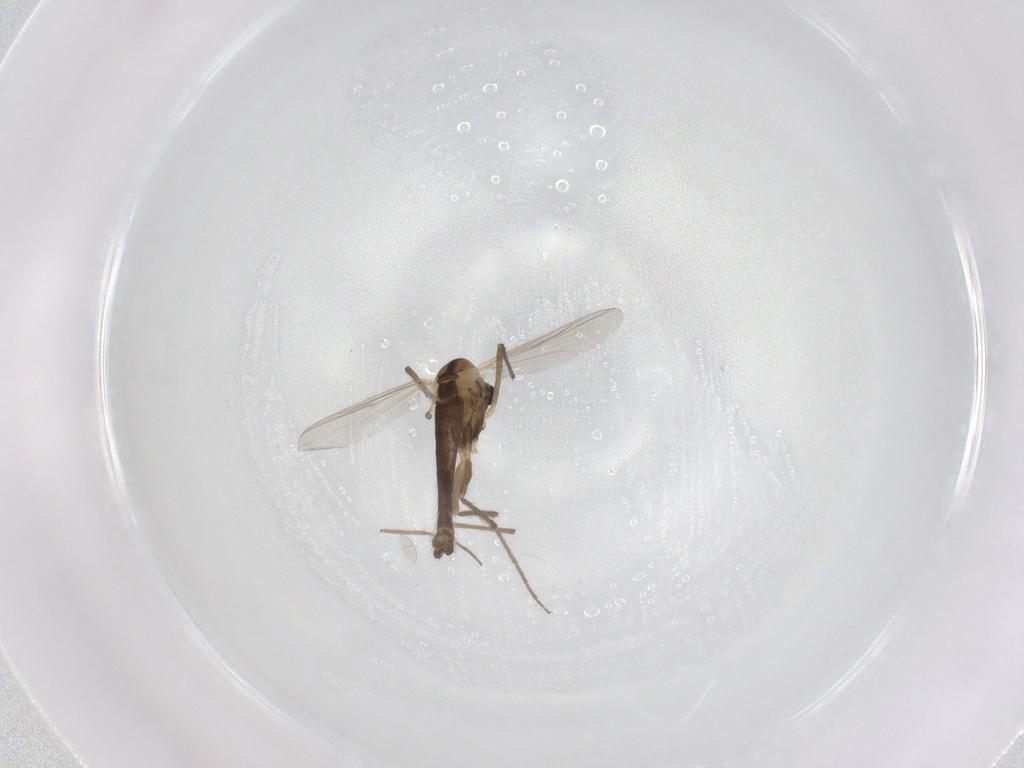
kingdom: Animalia
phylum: Arthropoda
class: Insecta
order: Diptera
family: Chironomidae
